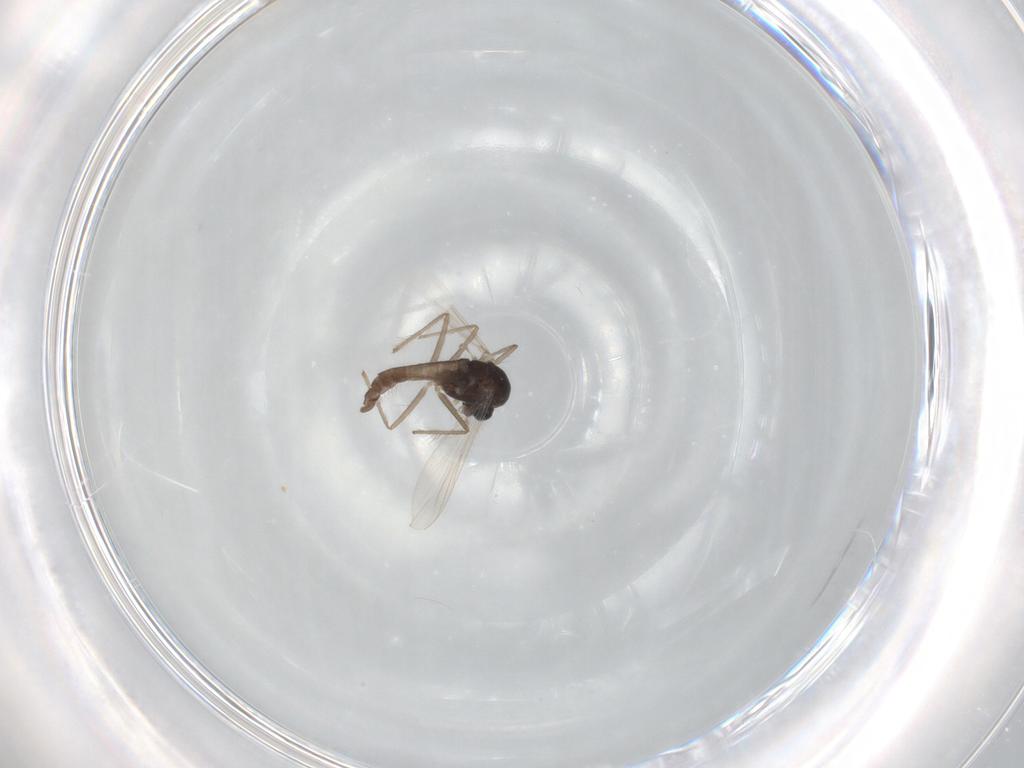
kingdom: Animalia
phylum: Arthropoda
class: Insecta
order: Diptera
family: Chironomidae
